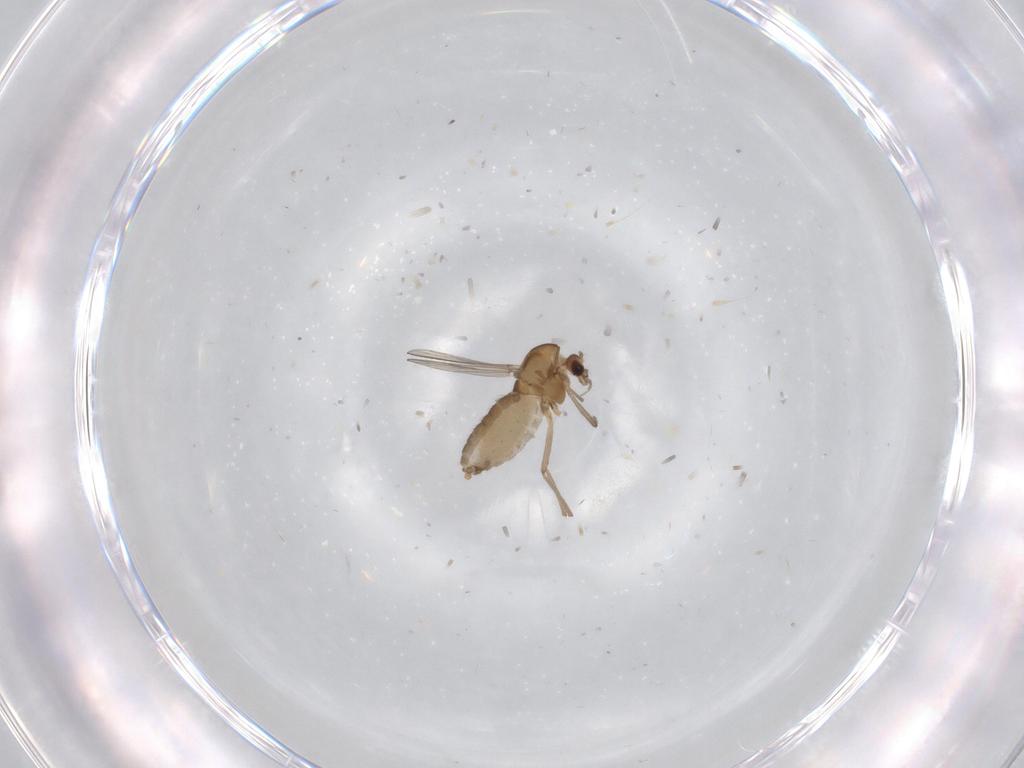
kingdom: Animalia
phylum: Arthropoda
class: Insecta
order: Diptera
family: Chironomidae
